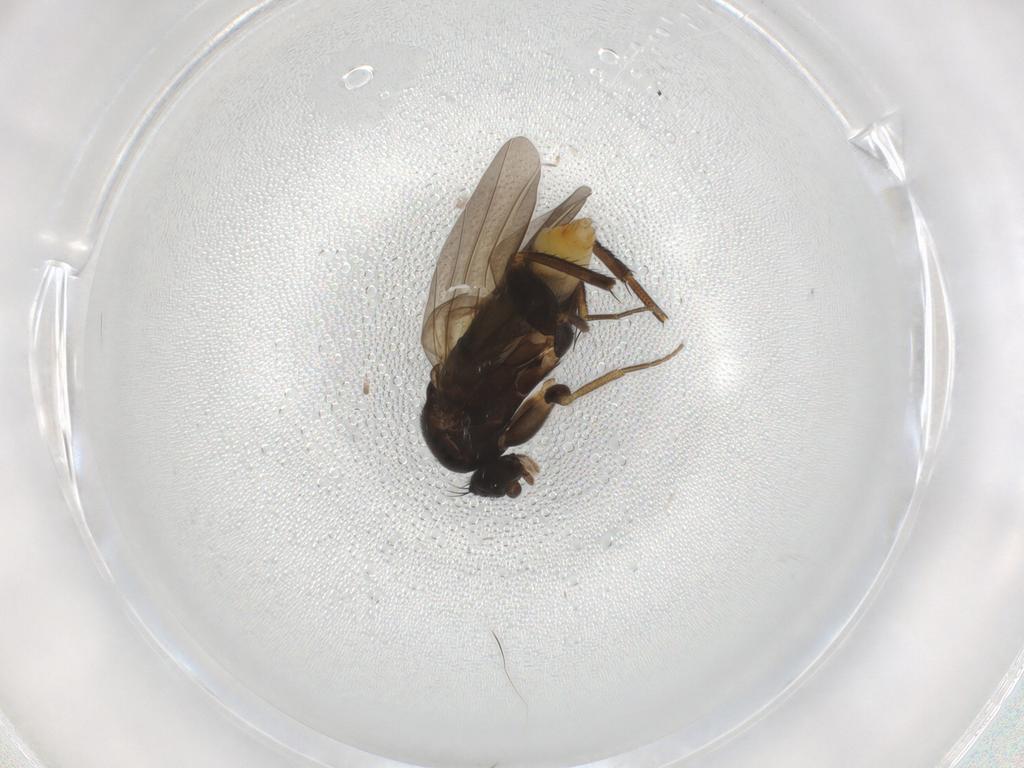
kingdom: Animalia
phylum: Arthropoda
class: Insecta
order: Diptera
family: Phoridae
